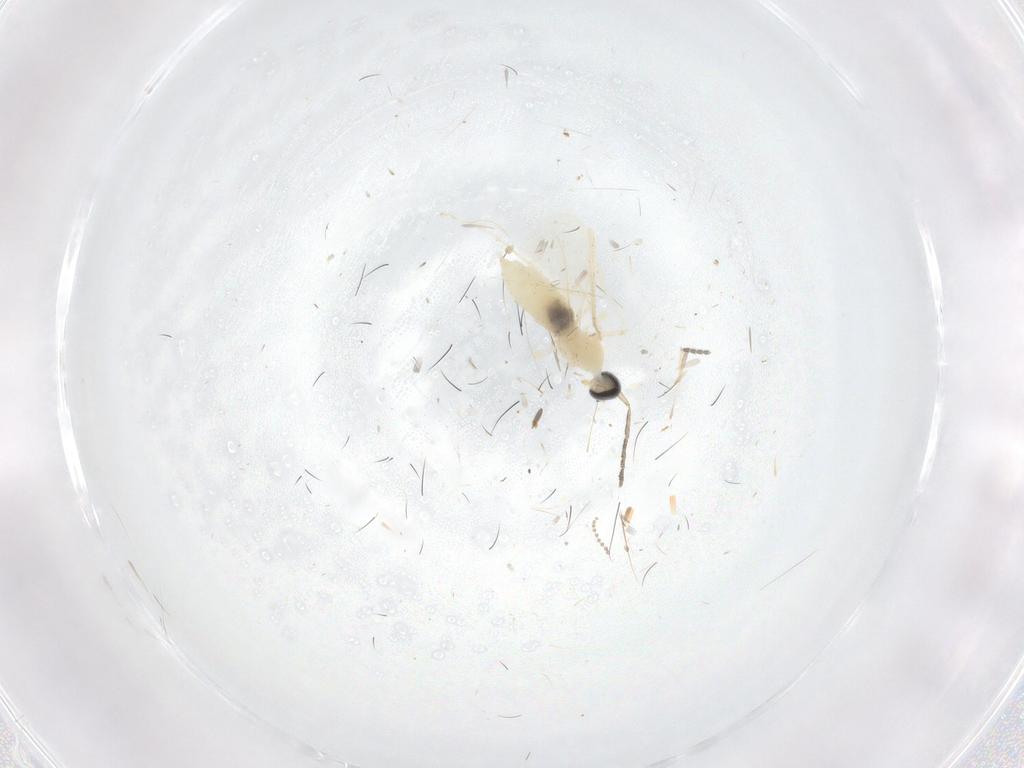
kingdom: Animalia
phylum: Arthropoda
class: Insecta
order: Diptera
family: Cecidomyiidae
